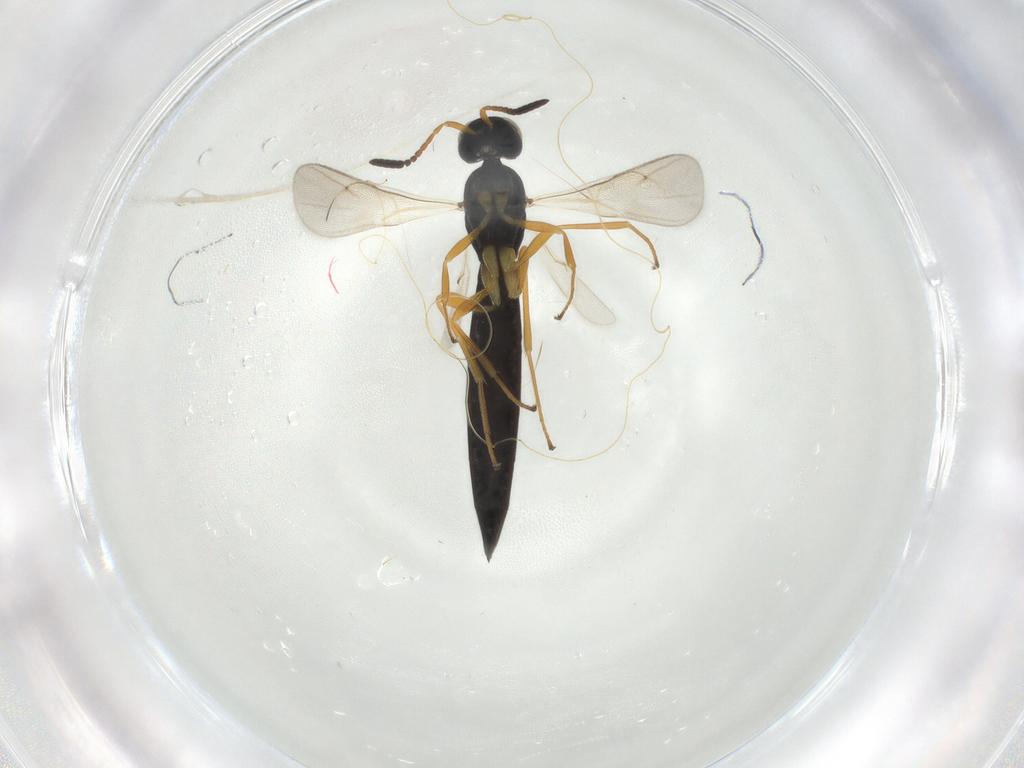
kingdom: Animalia
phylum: Arthropoda
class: Insecta
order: Hymenoptera
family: Scelionidae
